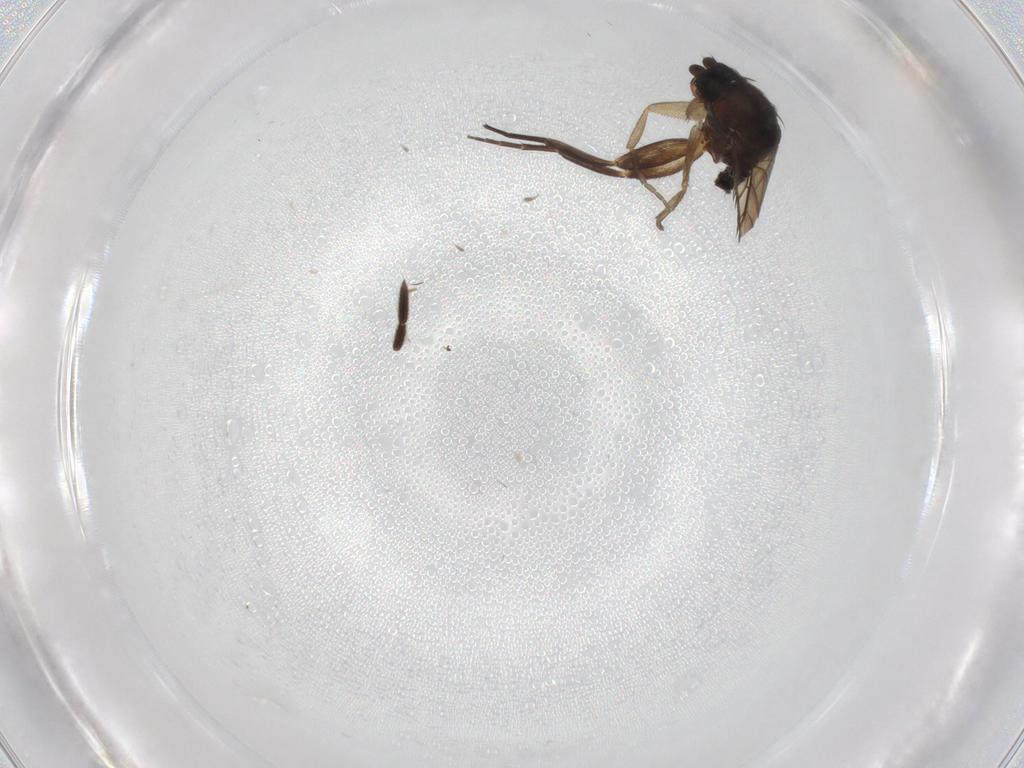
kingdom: Animalia
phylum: Arthropoda
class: Insecta
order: Diptera
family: Phoridae
